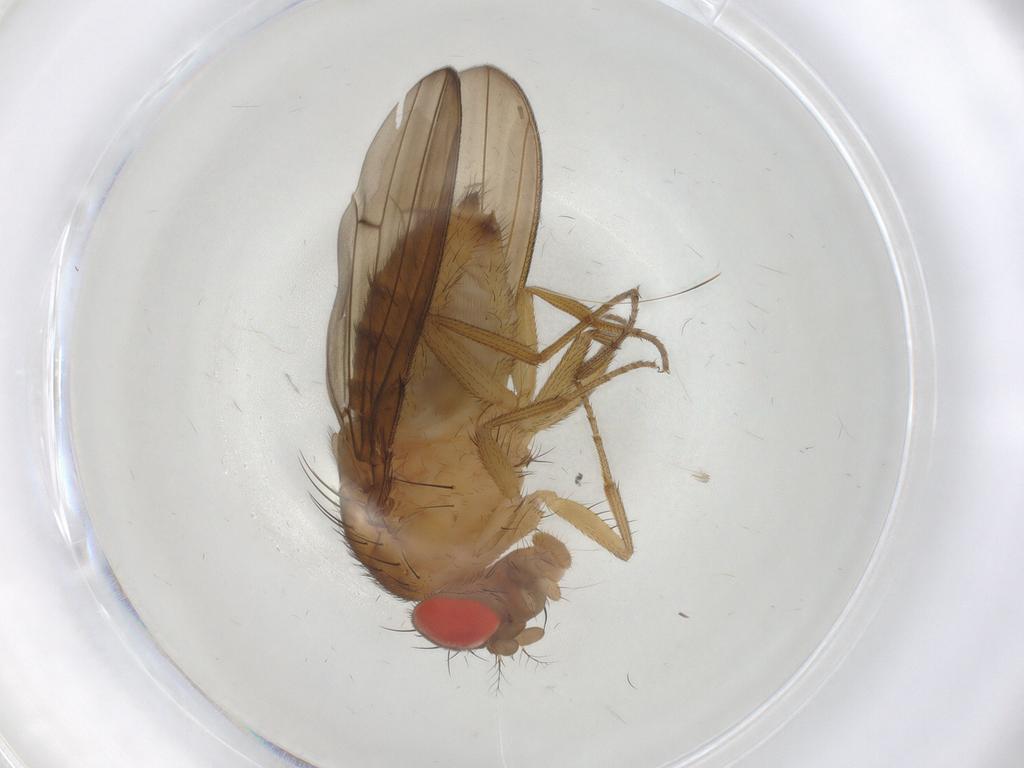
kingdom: Animalia
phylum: Arthropoda
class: Insecta
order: Diptera
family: Drosophilidae
